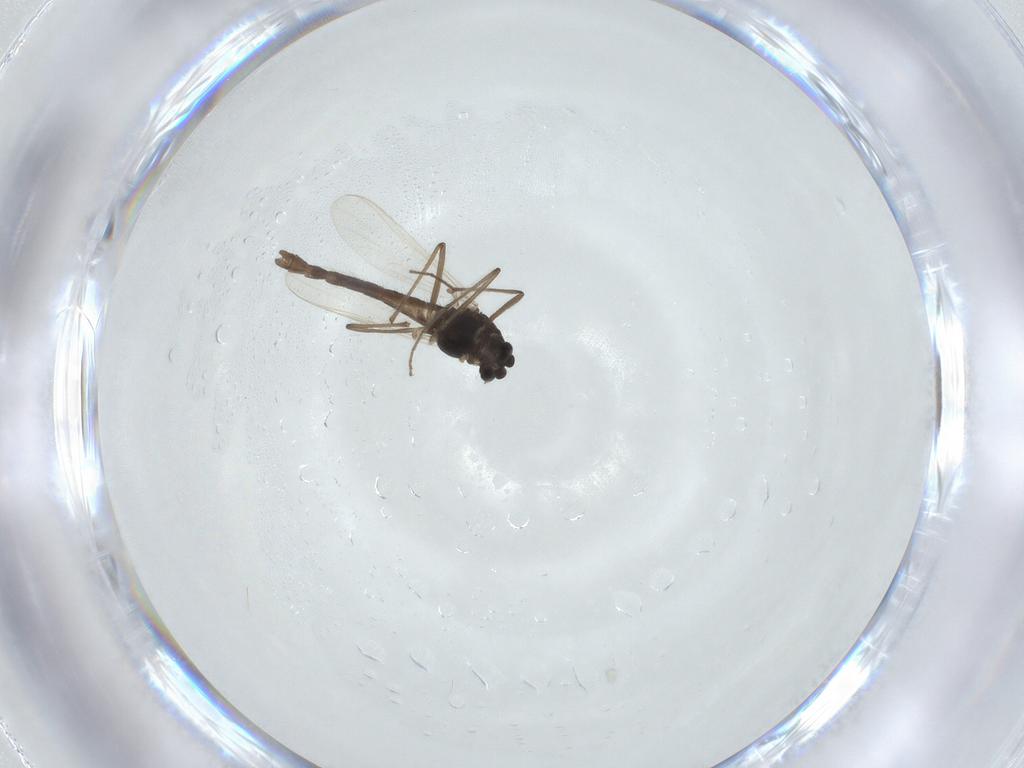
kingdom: Animalia
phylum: Arthropoda
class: Insecta
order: Diptera
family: Chironomidae
